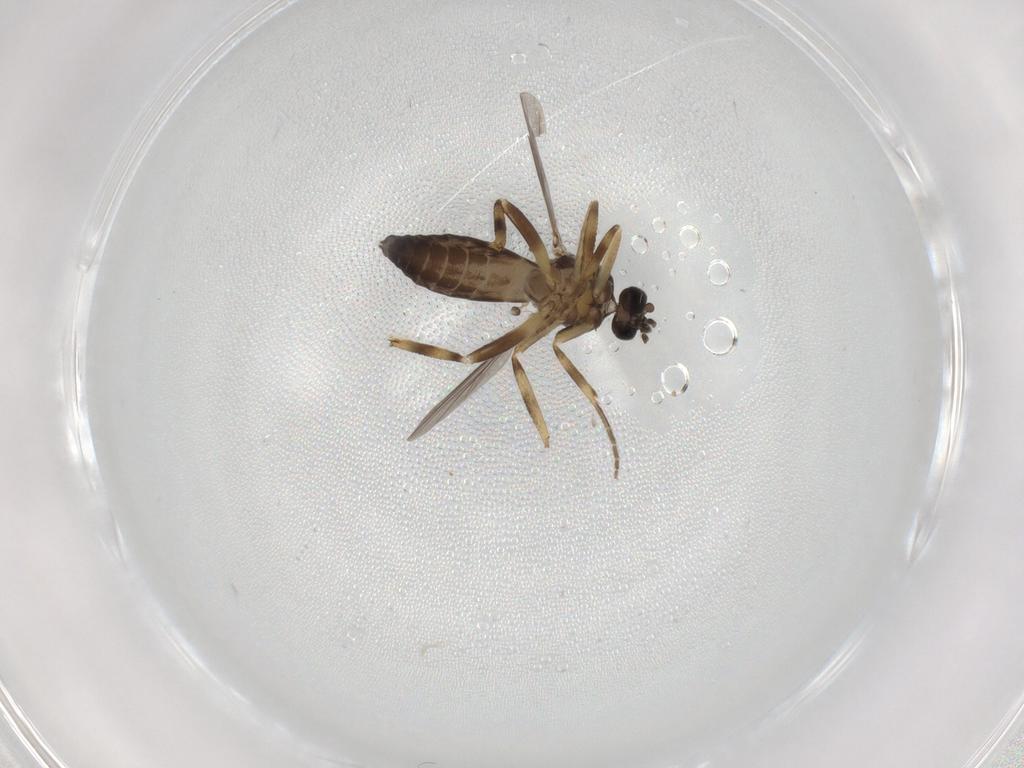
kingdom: Animalia
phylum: Arthropoda
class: Insecta
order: Diptera
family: Ceratopogonidae
